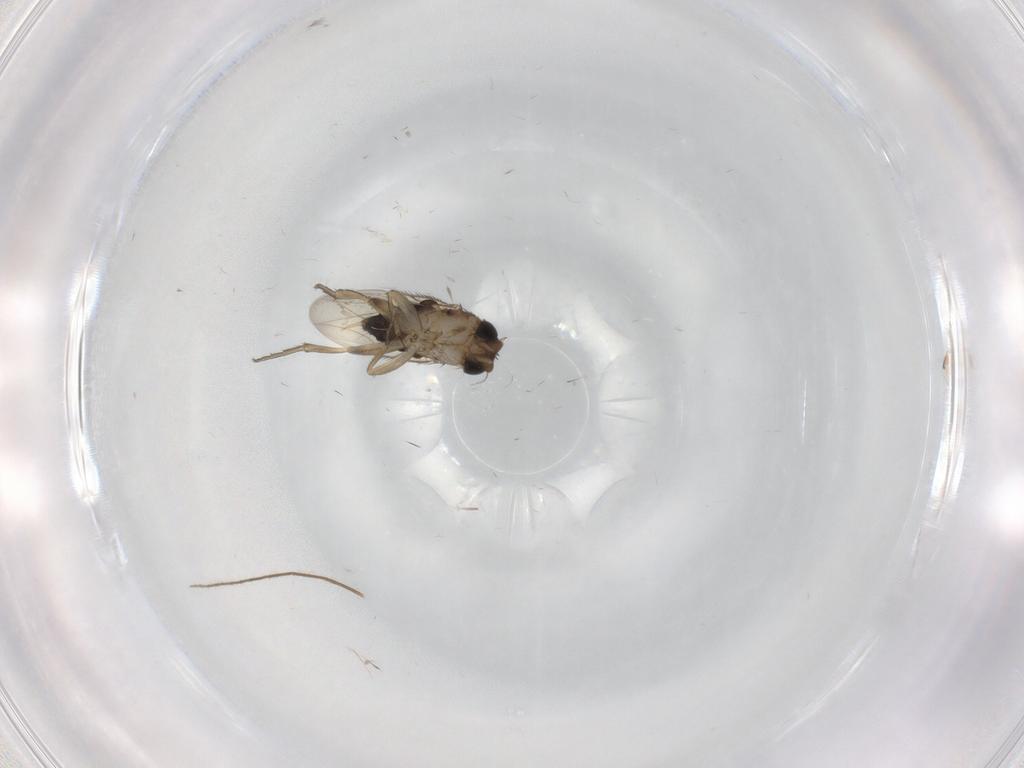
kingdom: Animalia
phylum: Arthropoda
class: Insecta
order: Diptera
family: Phoridae
